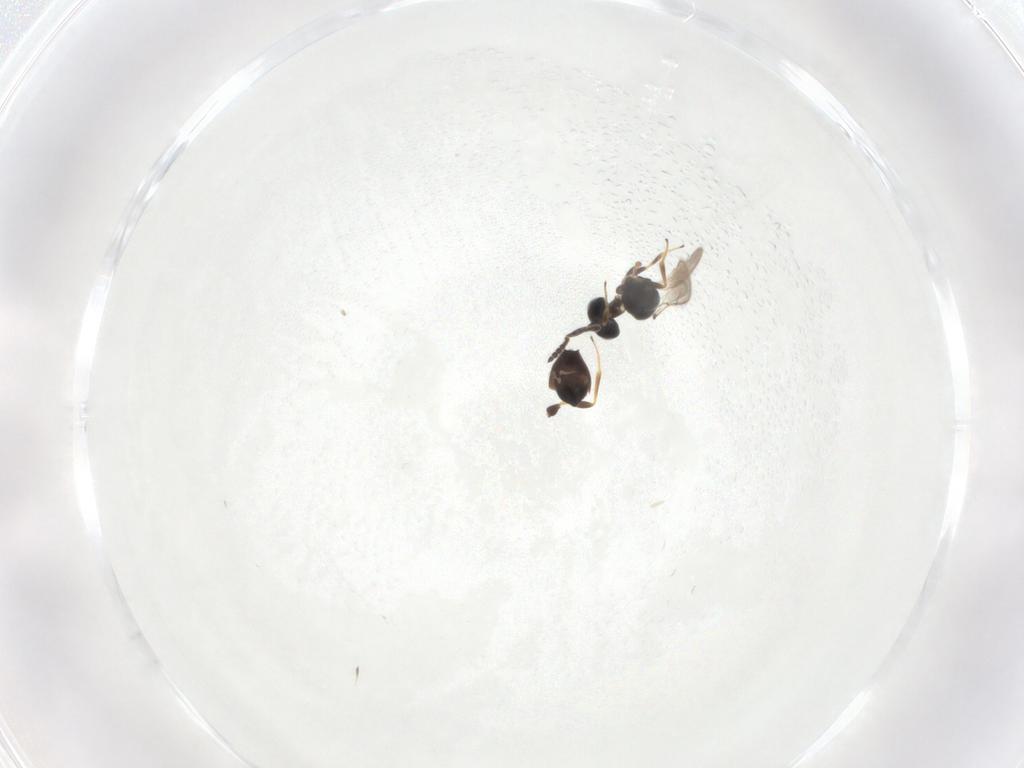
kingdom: Animalia
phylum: Arthropoda
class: Insecta
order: Hymenoptera
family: Scelionidae
